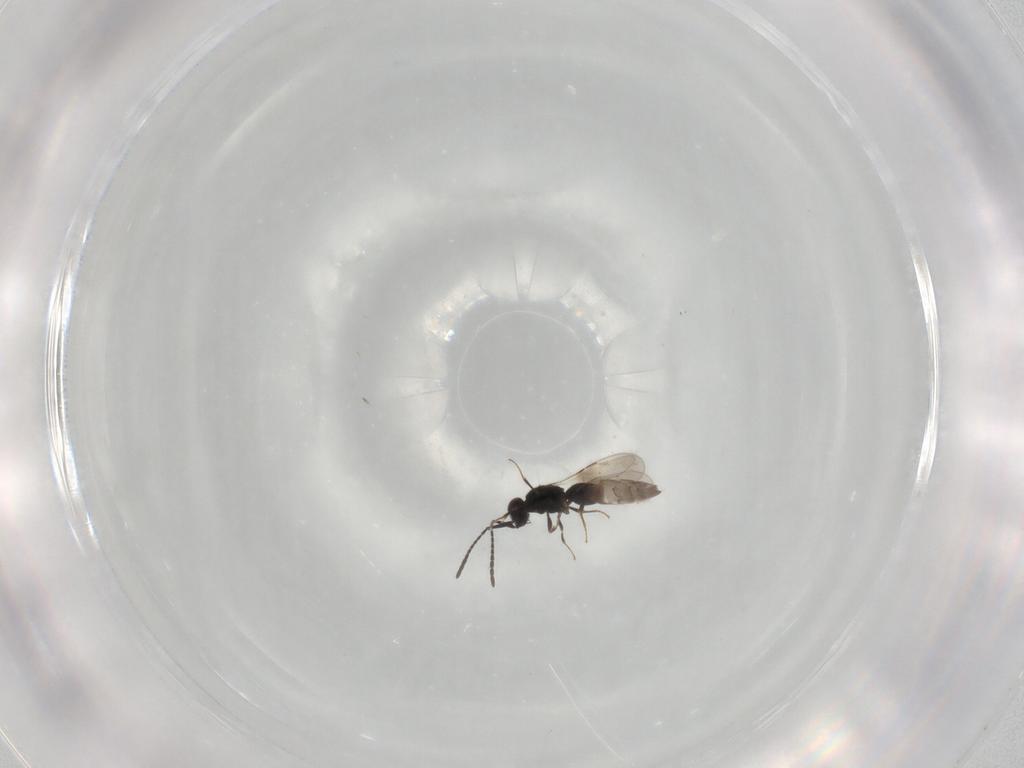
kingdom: Animalia
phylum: Arthropoda
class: Insecta
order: Hymenoptera
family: Ceraphronidae
